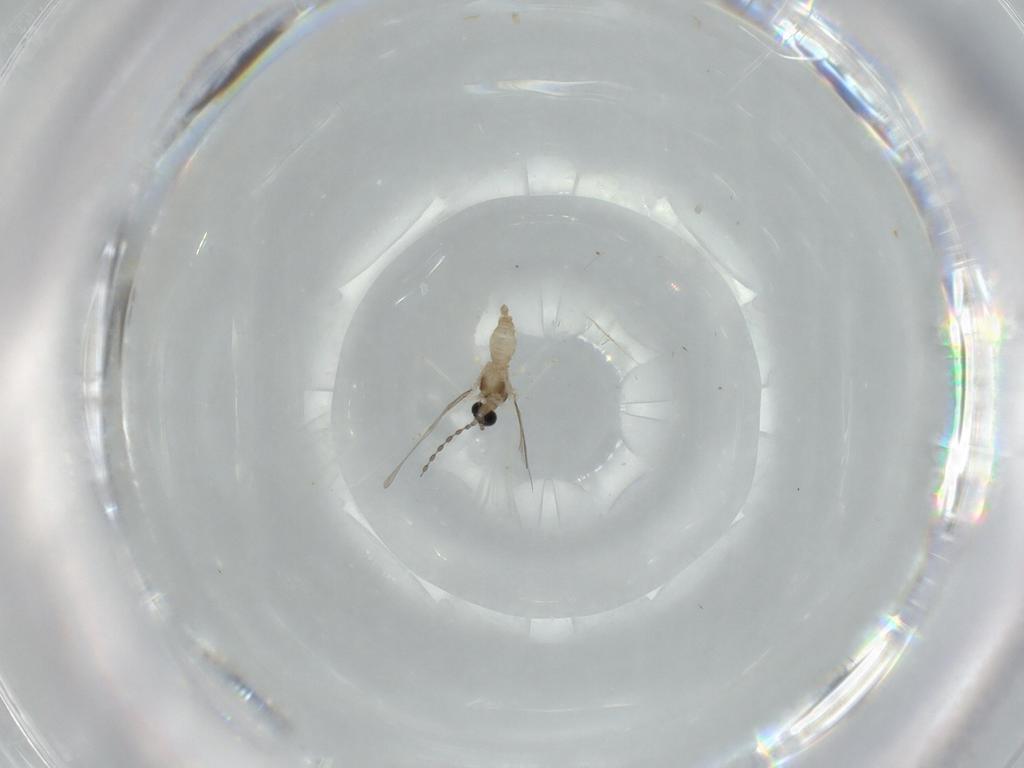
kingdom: Animalia
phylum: Arthropoda
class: Insecta
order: Diptera
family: Cecidomyiidae
